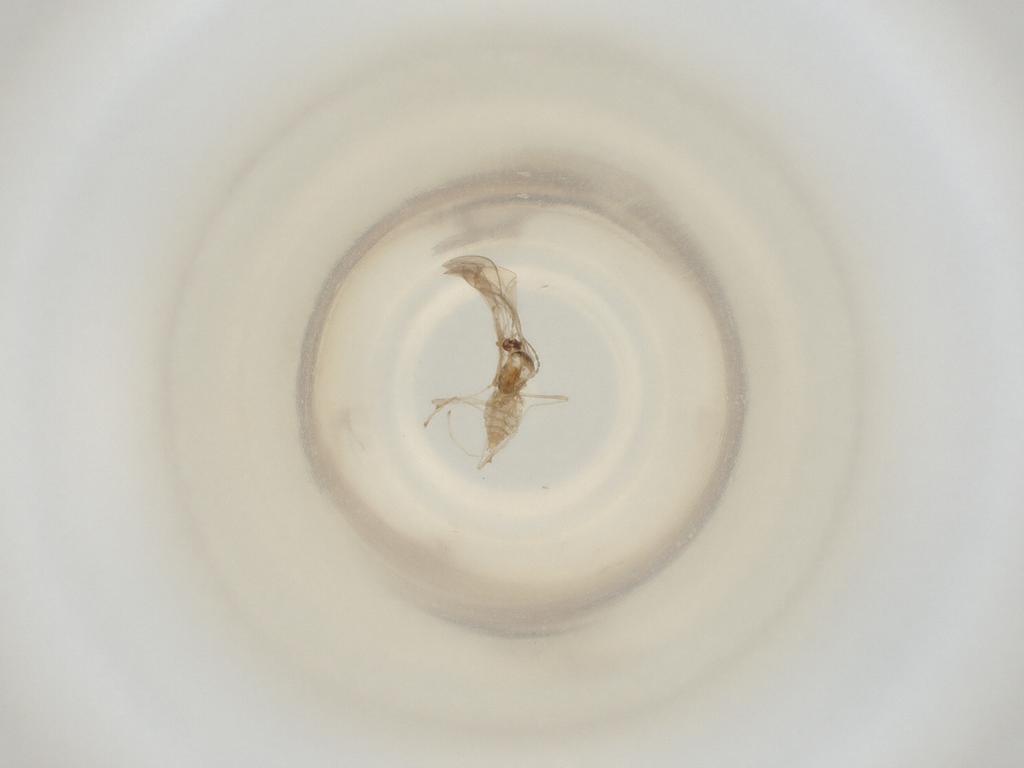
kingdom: Animalia
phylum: Arthropoda
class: Insecta
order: Diptera
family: Cecidomyiidae
